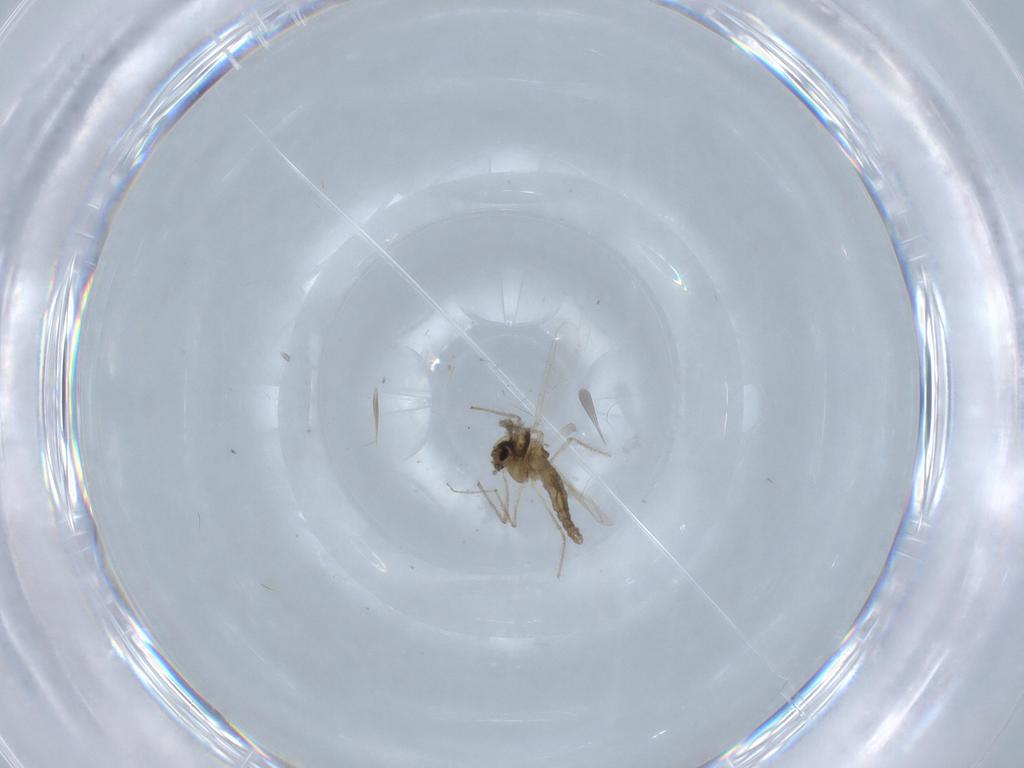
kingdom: Animalia
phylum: Arthropoda
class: Insecta
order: Diptera
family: Chironomidae
